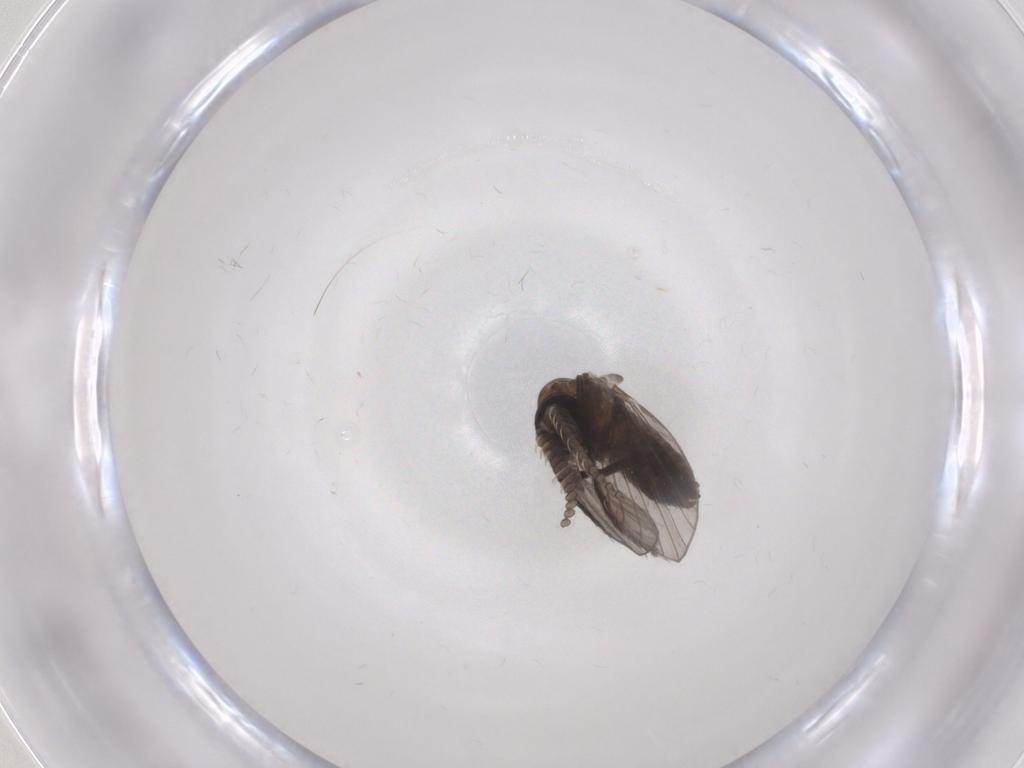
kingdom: Animalia
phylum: Arthropoda
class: Insecta
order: Diptera
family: Psychodidae
